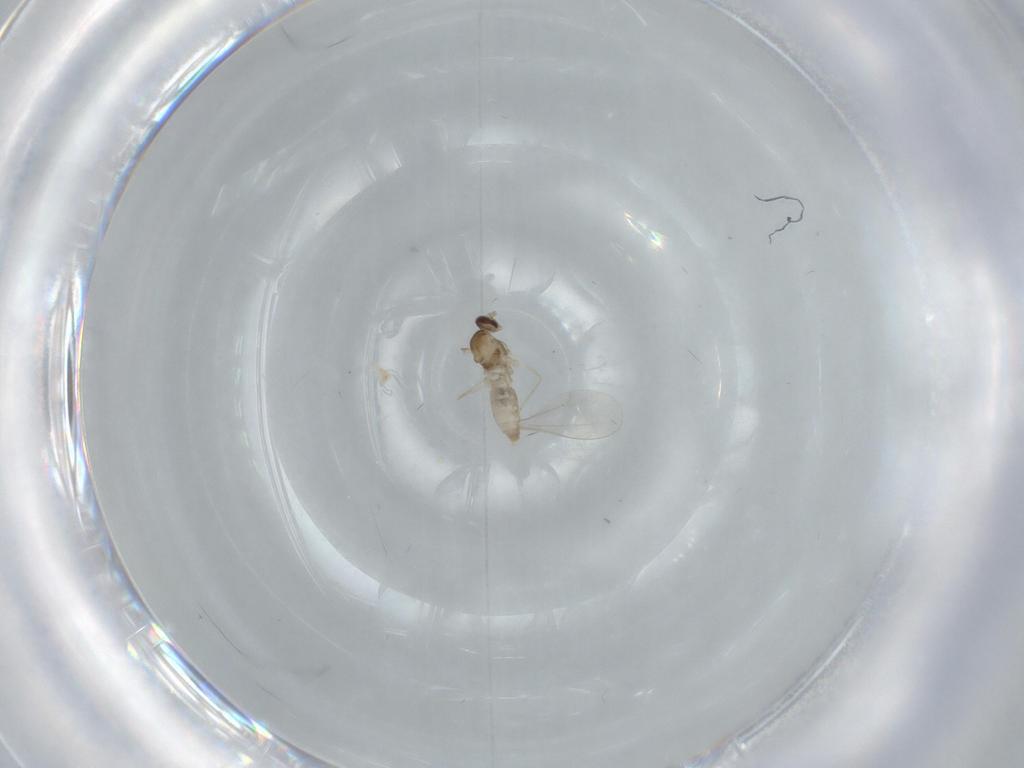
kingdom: Animalia
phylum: Arthropoda
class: Insecta
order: Diptera
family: Cecidomyiidae
